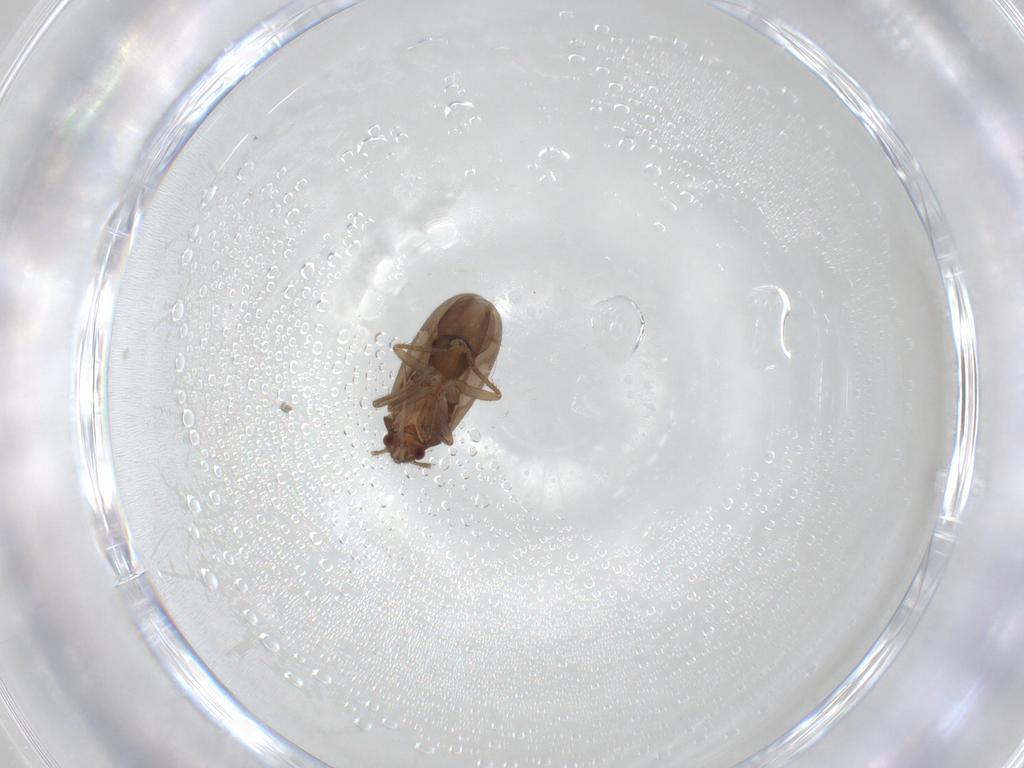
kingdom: Animalia
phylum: Arthropoda
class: Insecta
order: Hemiptera
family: Ceratocombidae
